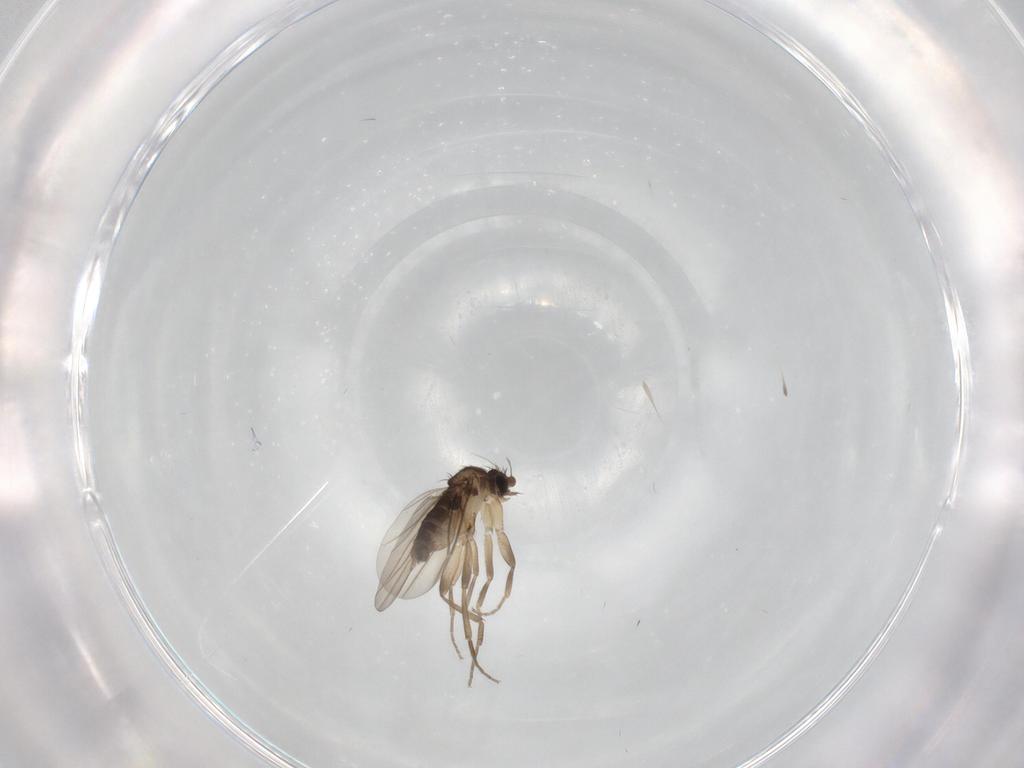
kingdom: Animalia
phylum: Arthropoda
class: Insecta
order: Diptera
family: Phoridae
